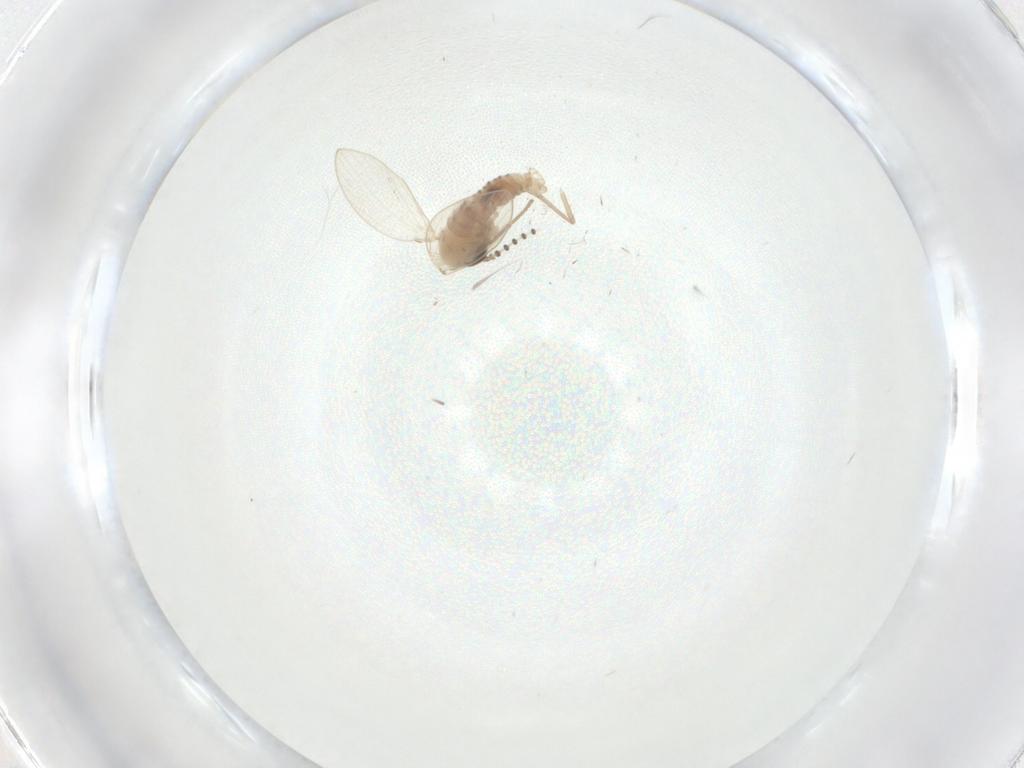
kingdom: Animalia
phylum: Arthropoda
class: Insecta
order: Diptera
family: Psychodidae
